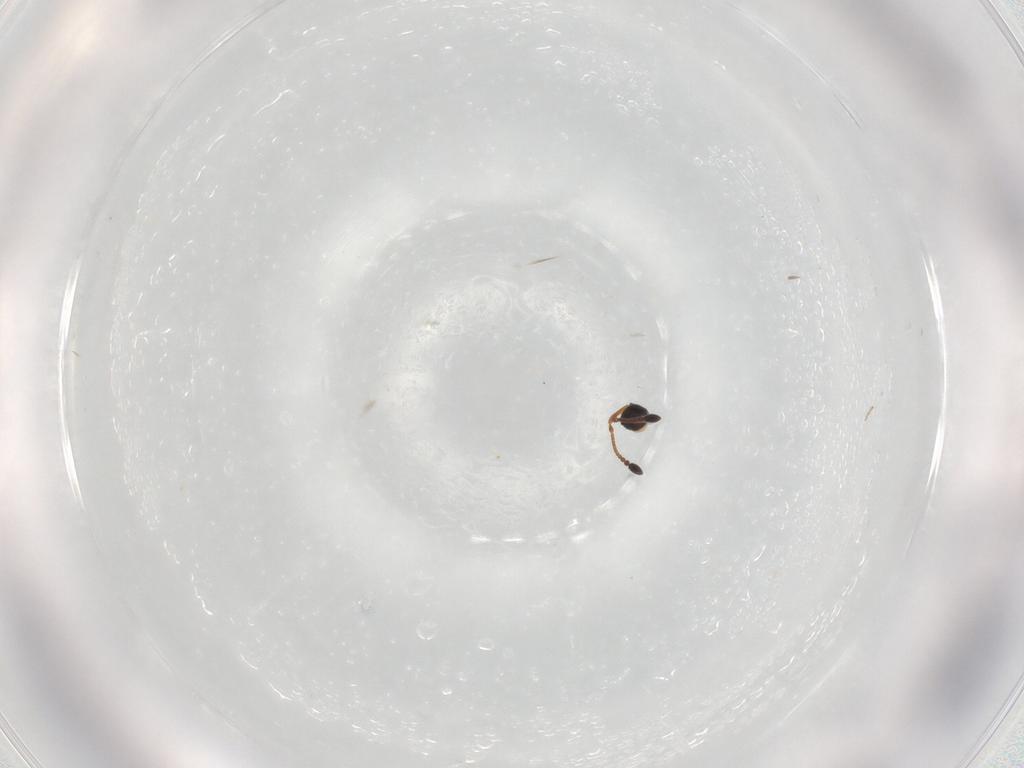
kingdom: Animalia
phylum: Arthropoda
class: Insecta
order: Hymenoptera
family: Diapriidae
